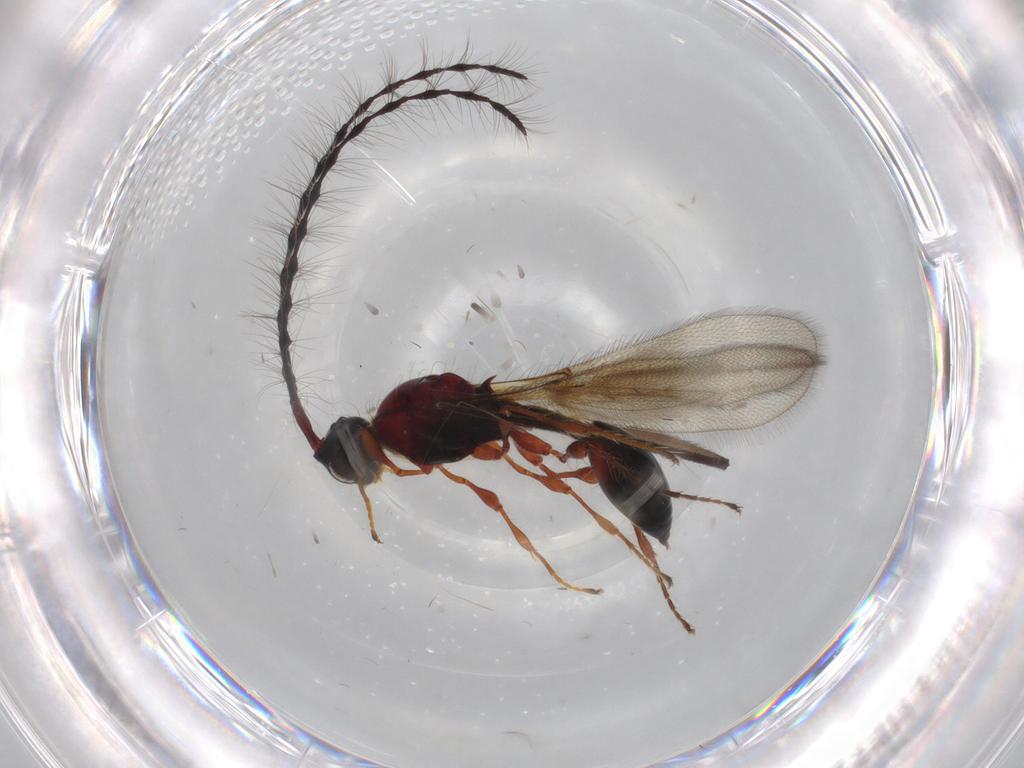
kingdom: Animalia
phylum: Arthropoda
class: Insecta
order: Hymenoptera
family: Diapriidae
